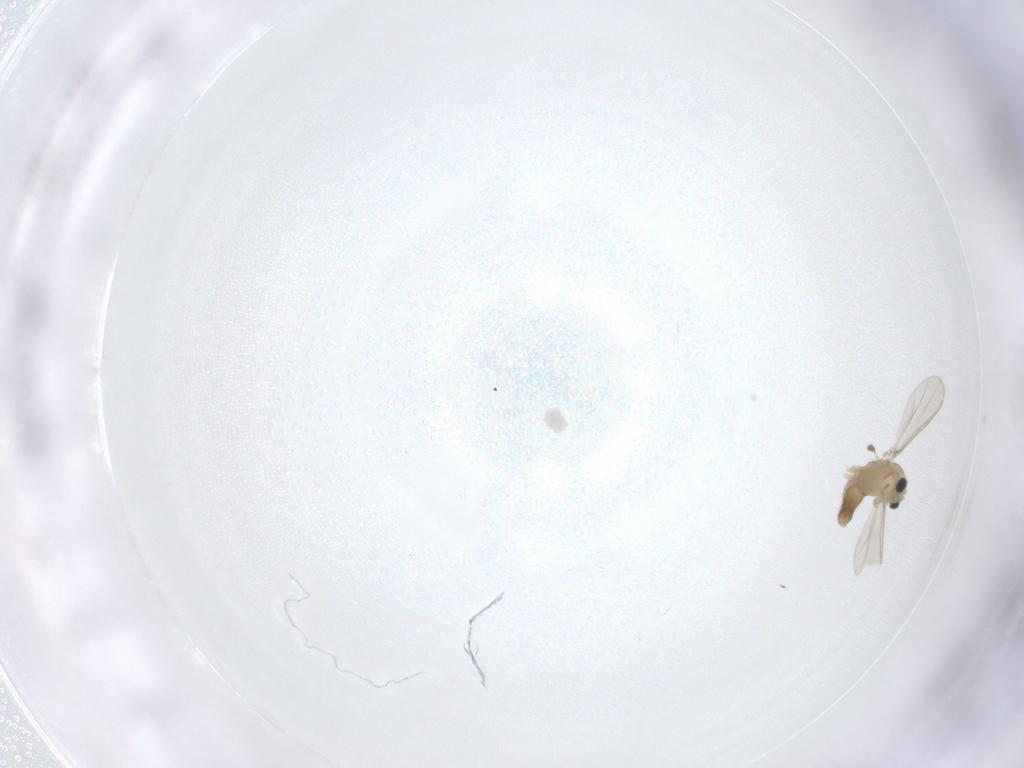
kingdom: Animalia
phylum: Arthropoda
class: Insecta
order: Diptera
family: Chironomidae
